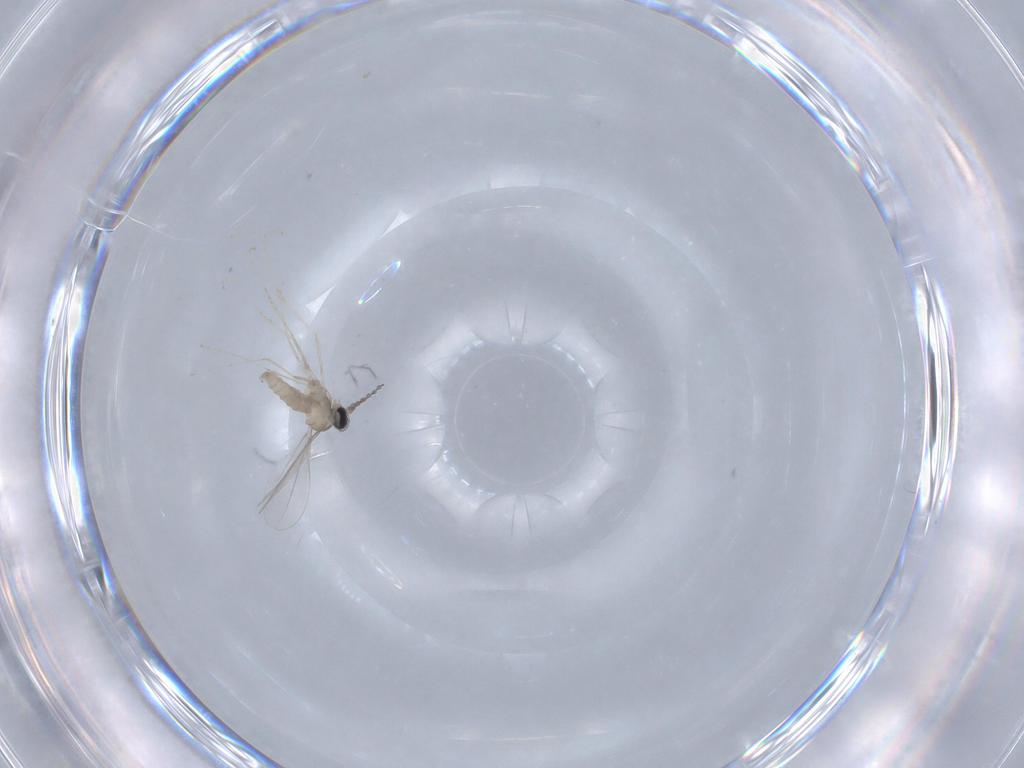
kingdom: Animalia
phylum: Arthropoda
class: Insecta
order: Diptera
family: Cecidomyiidae
